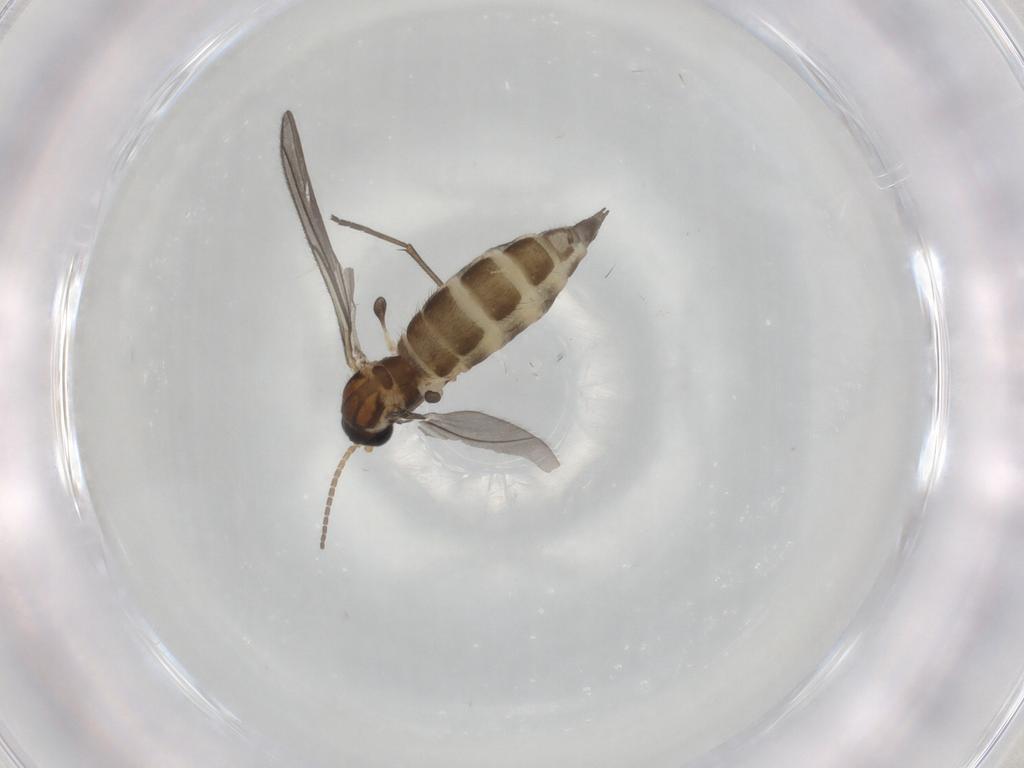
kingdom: Animalia
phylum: Arthropoda
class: Insecta
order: Diptera
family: Sciaridae
